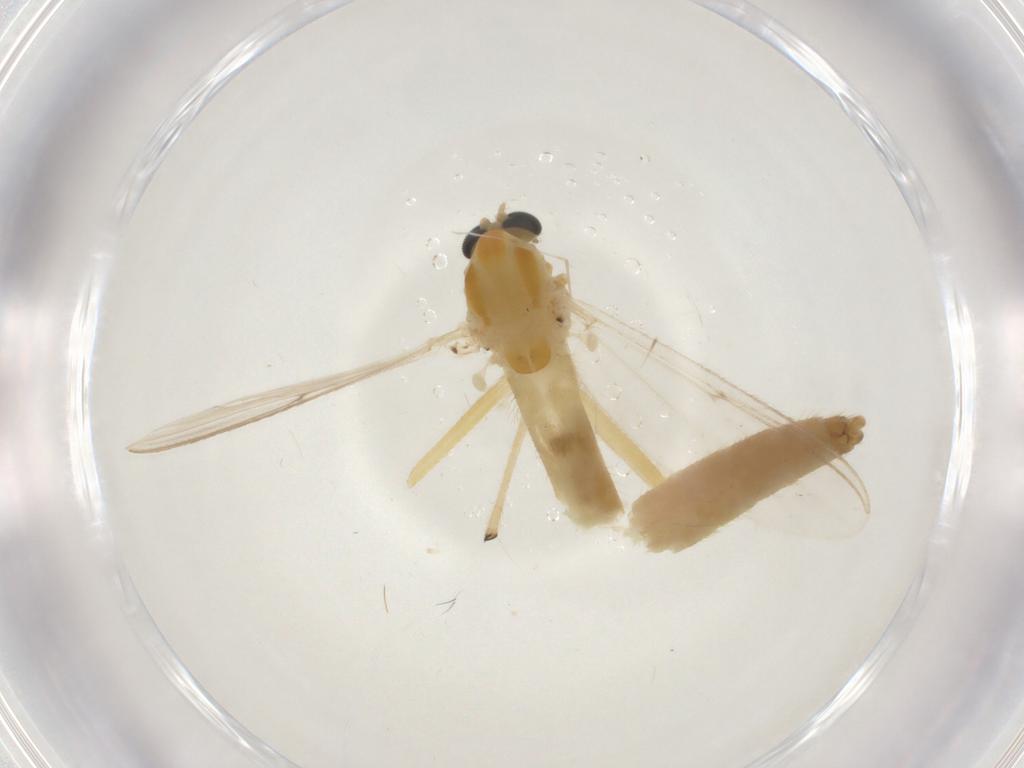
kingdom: Animalia
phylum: Arthropoda
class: Insecta
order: Diptera
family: Chironomidae
